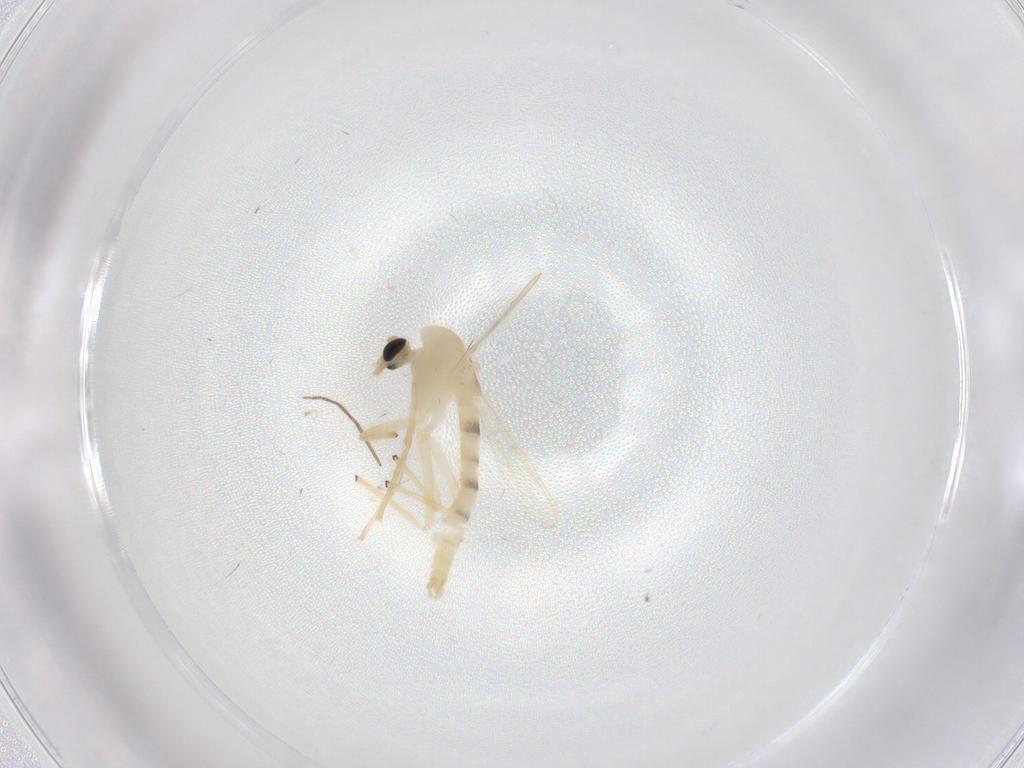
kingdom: Animalia
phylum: Arthropoda
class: Insecta
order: Diptera
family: Chironomidae
